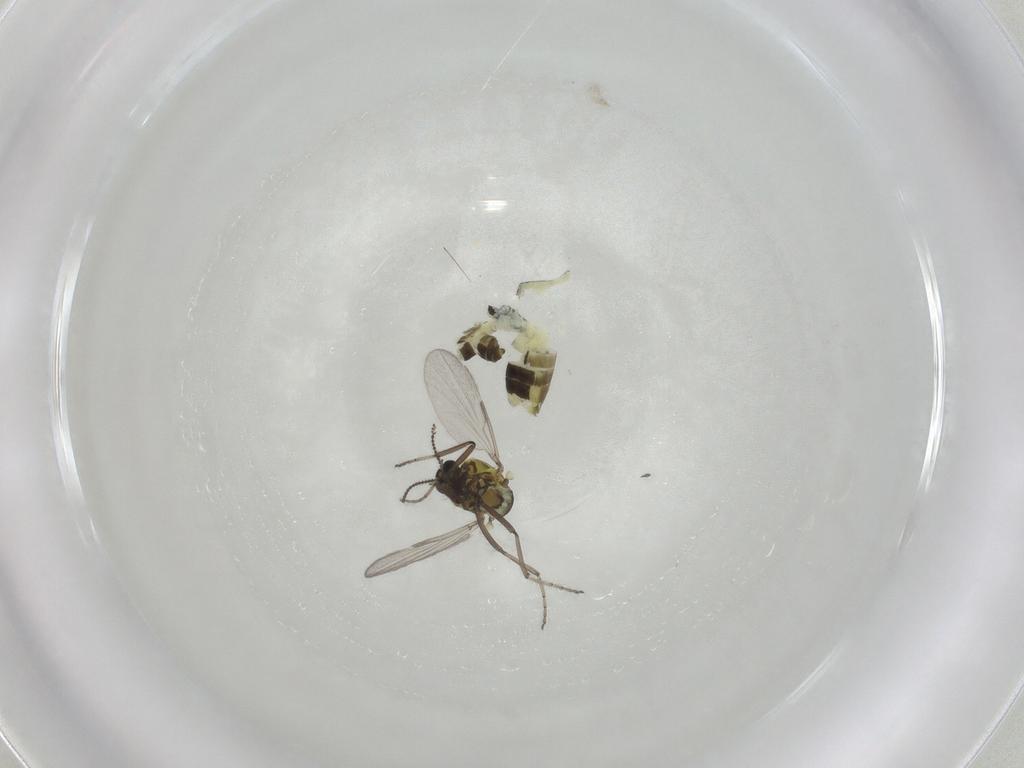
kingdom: Animalia
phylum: Arthropoda
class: Insecta
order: Diptera
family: Ceratopogonidae
